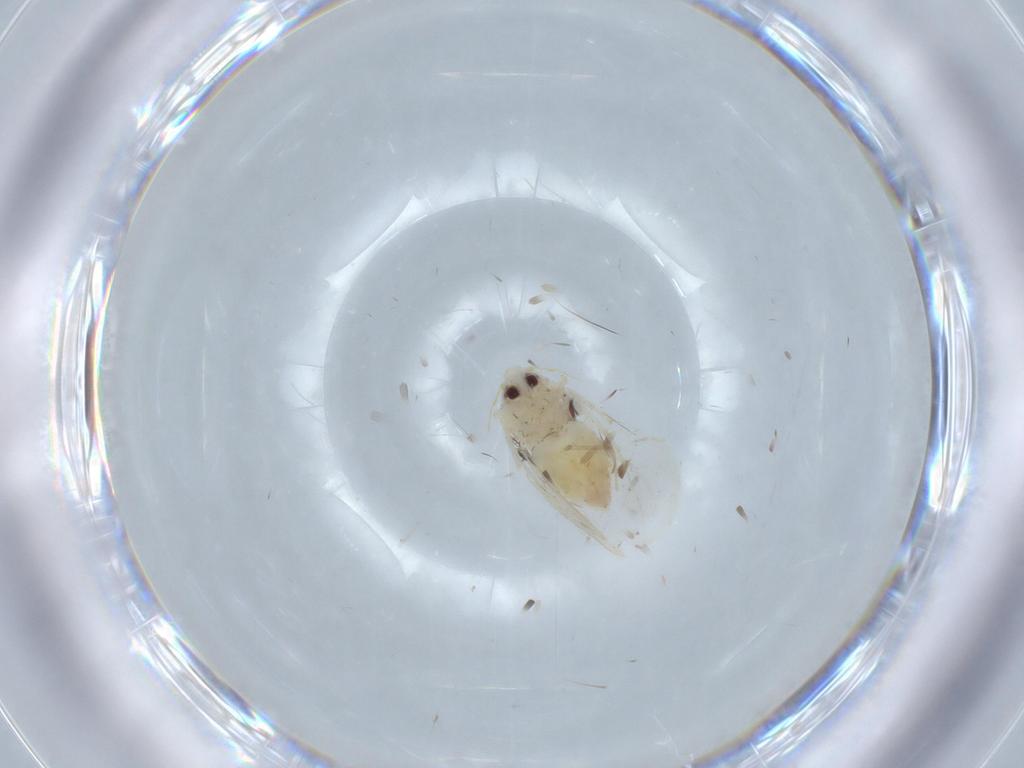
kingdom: Animalia
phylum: Arthropoda
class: Insecta
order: Hemiptera
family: Aleyrodidae
